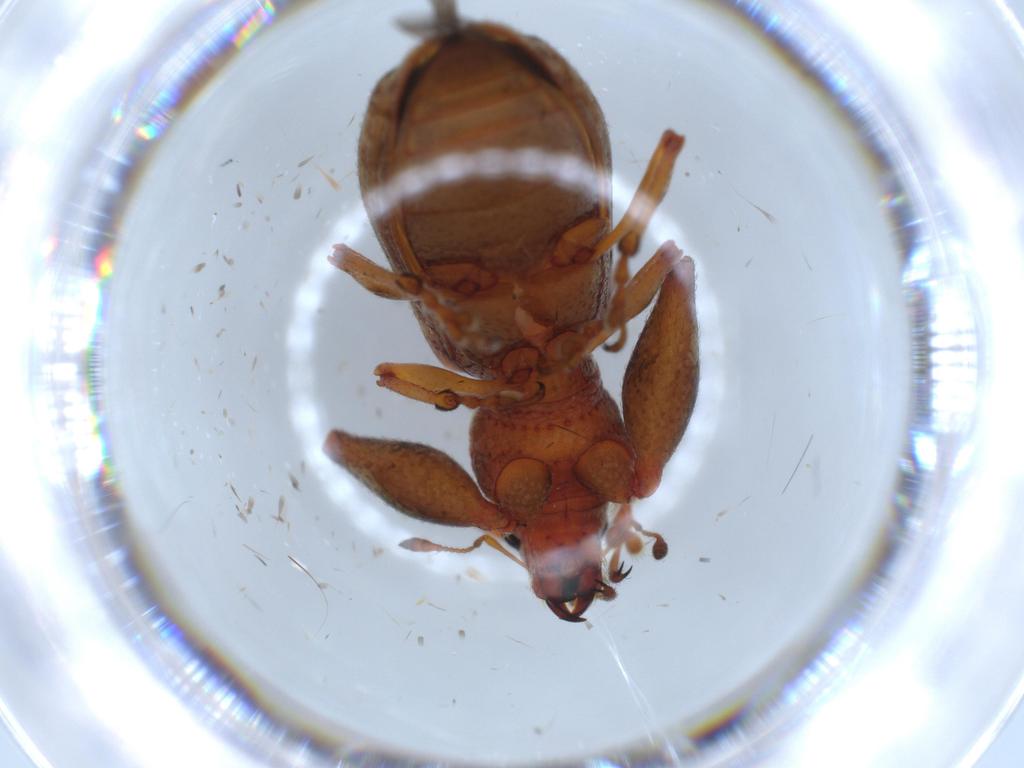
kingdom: Animalia
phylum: Arthropoda
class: Insecta
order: Coleoptera
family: Curculionidae
